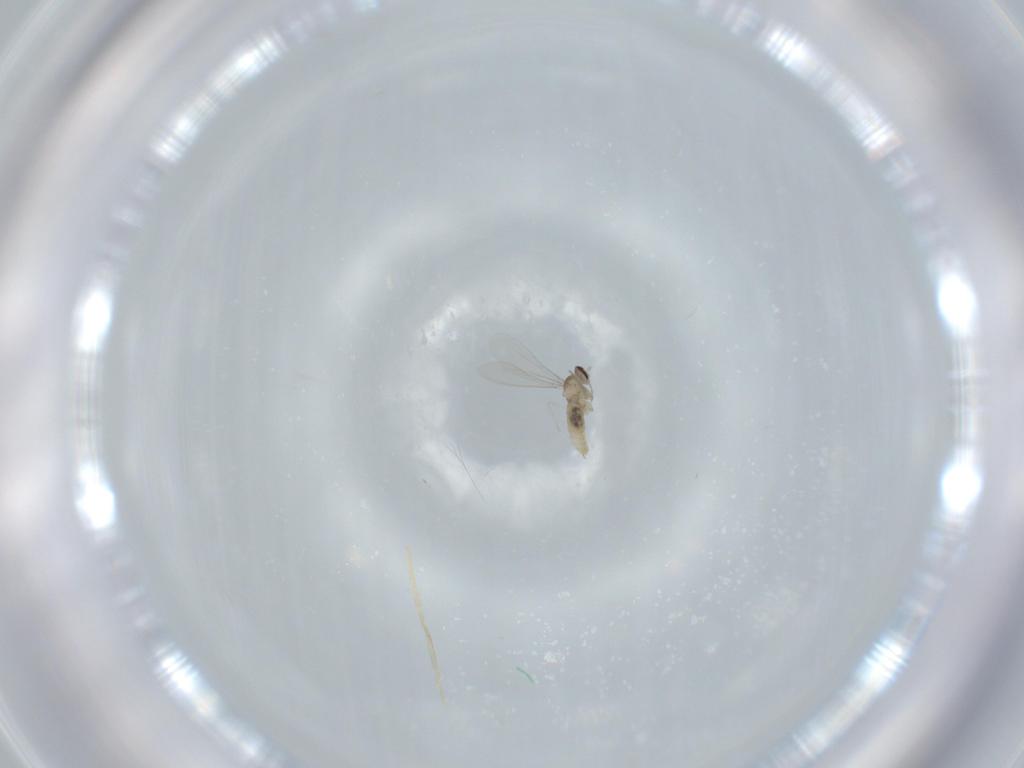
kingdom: Animalia
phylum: Arthropoda
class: Insecta
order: Diptera
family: Cecidomyiidae
